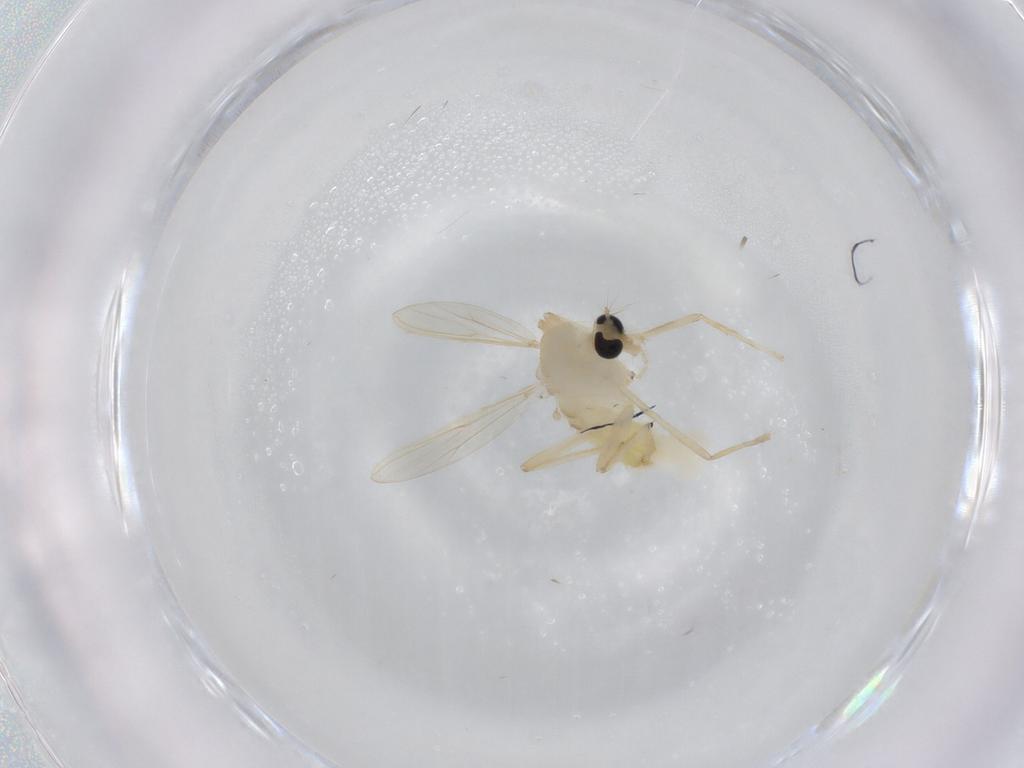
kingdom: Animalia
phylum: Arthropoda
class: Insecta
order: Diptera
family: Chironomidae
